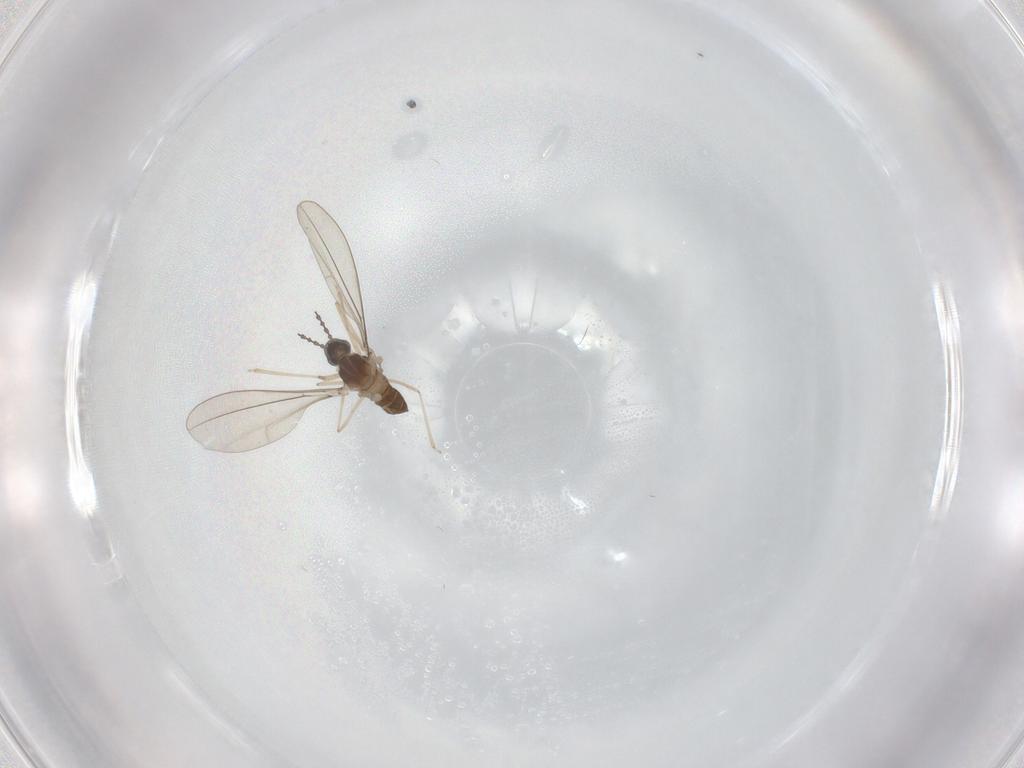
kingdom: Animalia
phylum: Arthropoda
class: Insecta
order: Diptera
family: Cecidomyiidae
